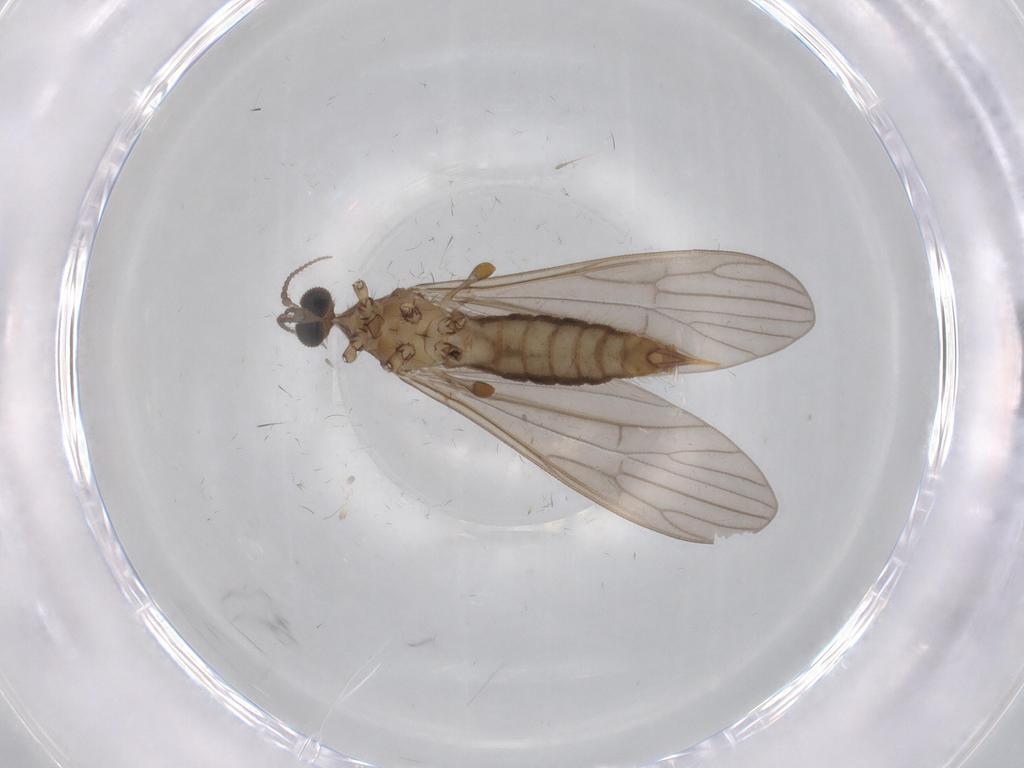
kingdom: Animalia
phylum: Arthropoda
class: Insecta
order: Diptera
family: Limoniidae
